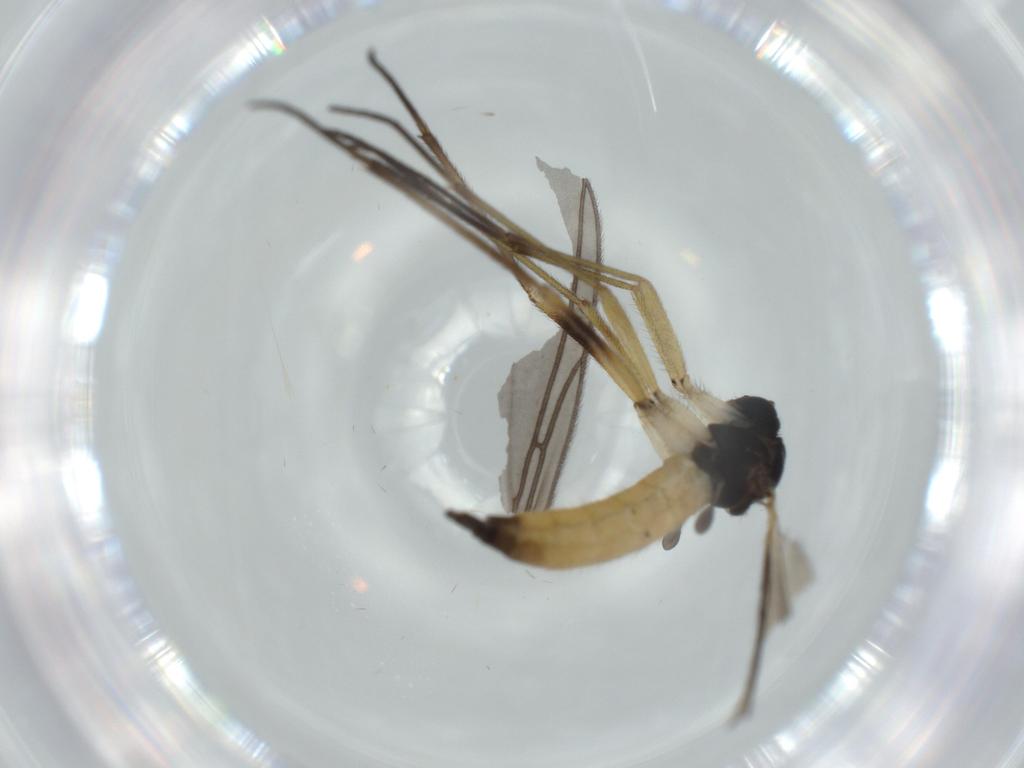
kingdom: Animalia
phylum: Arthropoda
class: Insecta
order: Diptera
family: Sciaridae
